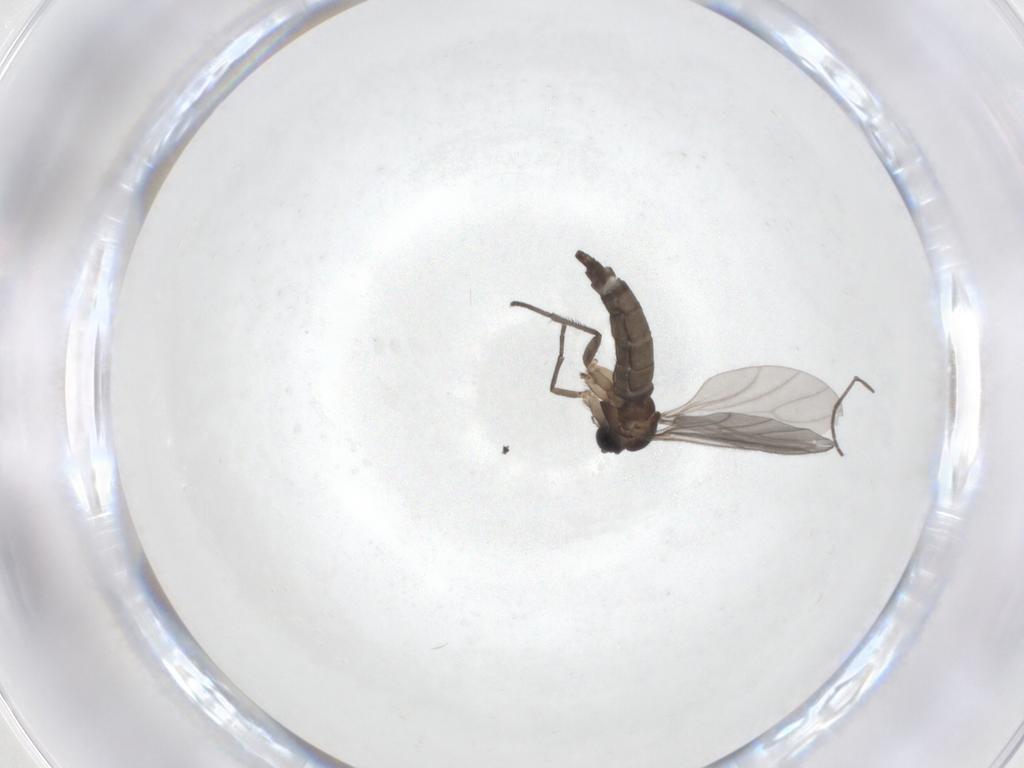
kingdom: Animalia
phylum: Arthropoda
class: Insecta
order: Diptera
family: Sciaridae
